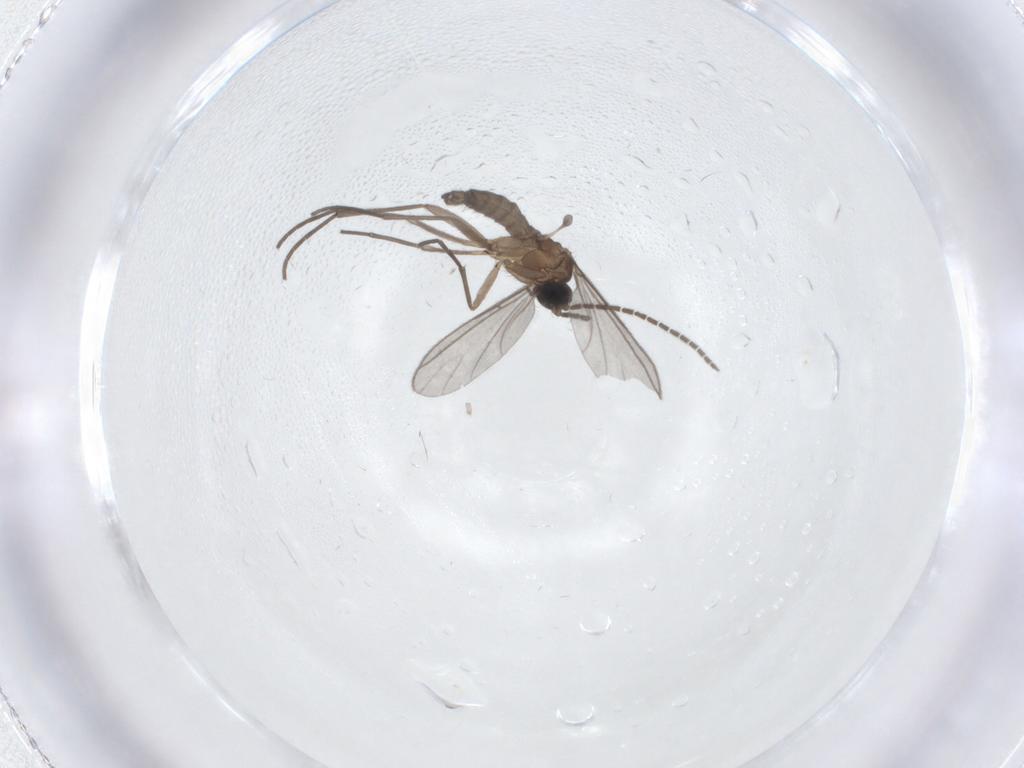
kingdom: Animalia
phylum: Arthropoda
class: Insecta
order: Diptera
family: Sciaridae
